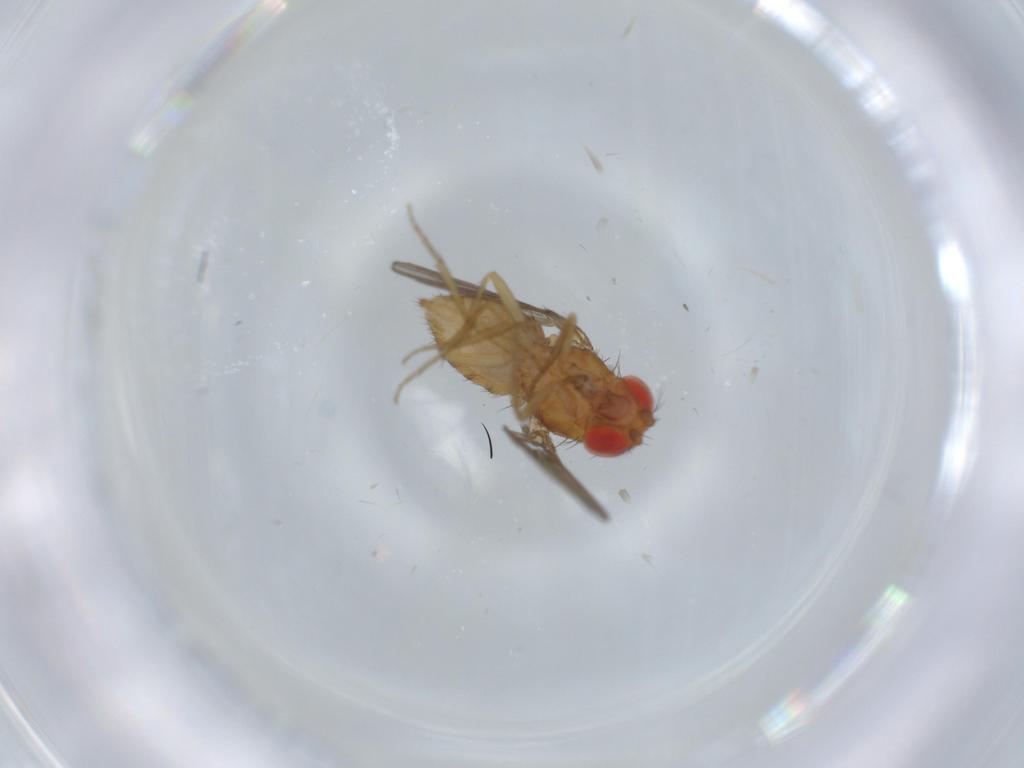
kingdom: Animalia
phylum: Arthropoda
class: Insecta
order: Diptera
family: Drosophilidae
